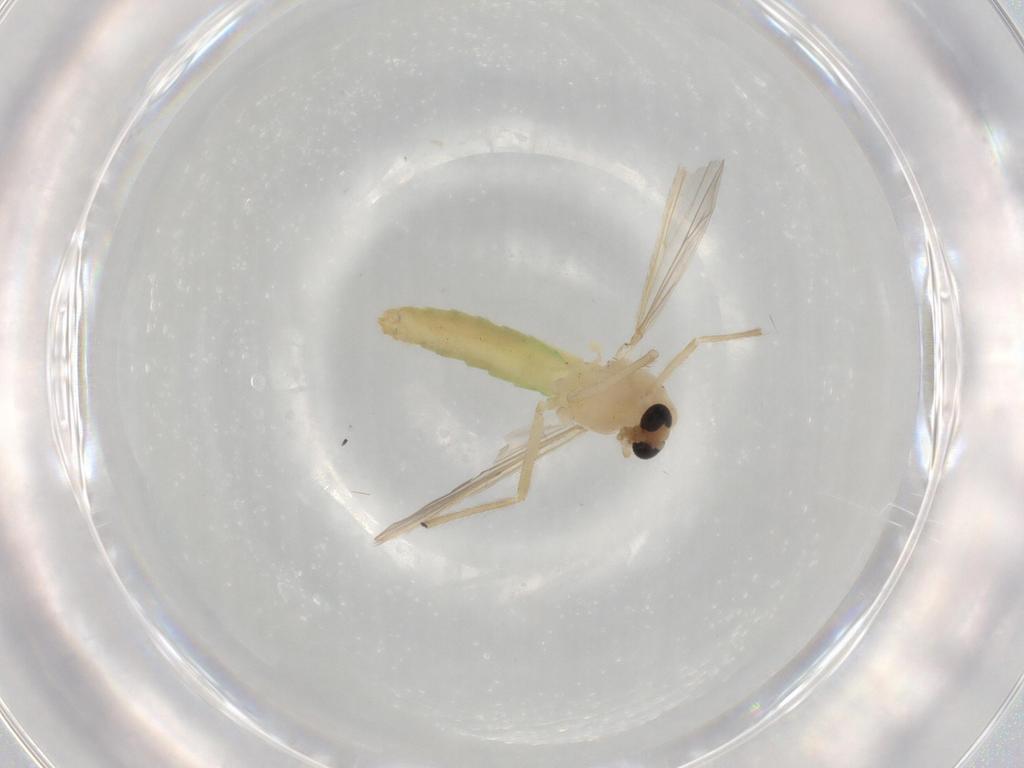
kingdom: Animalia
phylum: Arthropoda
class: Insecta
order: Diptera
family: Chironomidae
